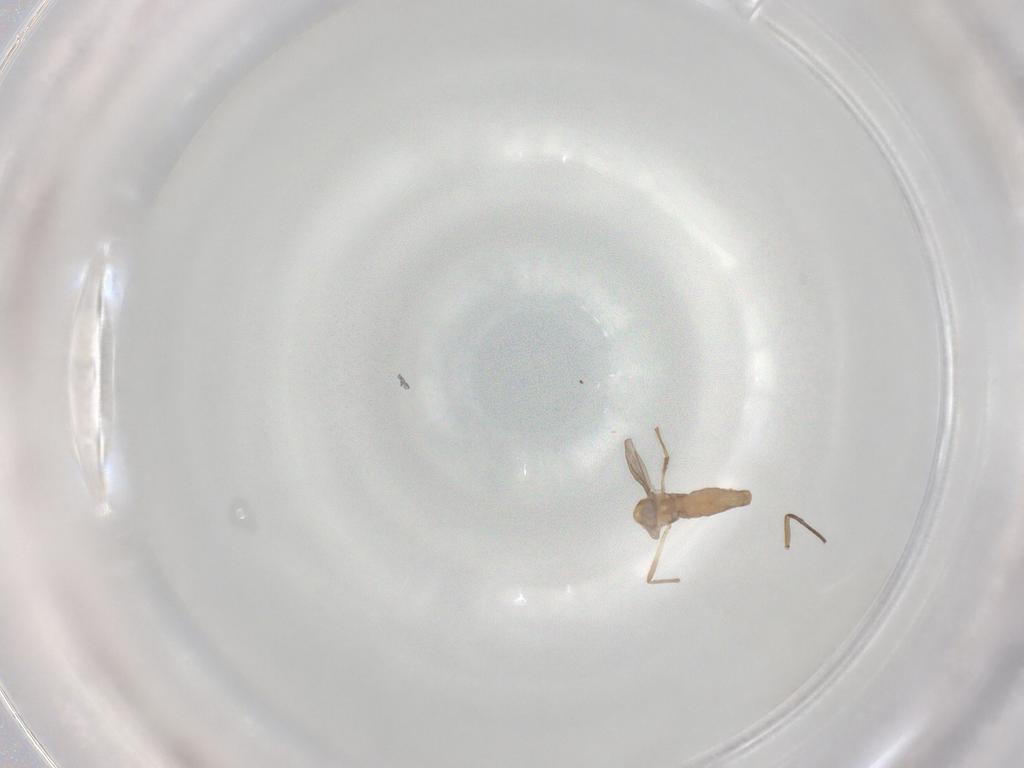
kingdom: Animalia
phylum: Arthropoda
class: Insecta
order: Diptera
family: Chironomidae
